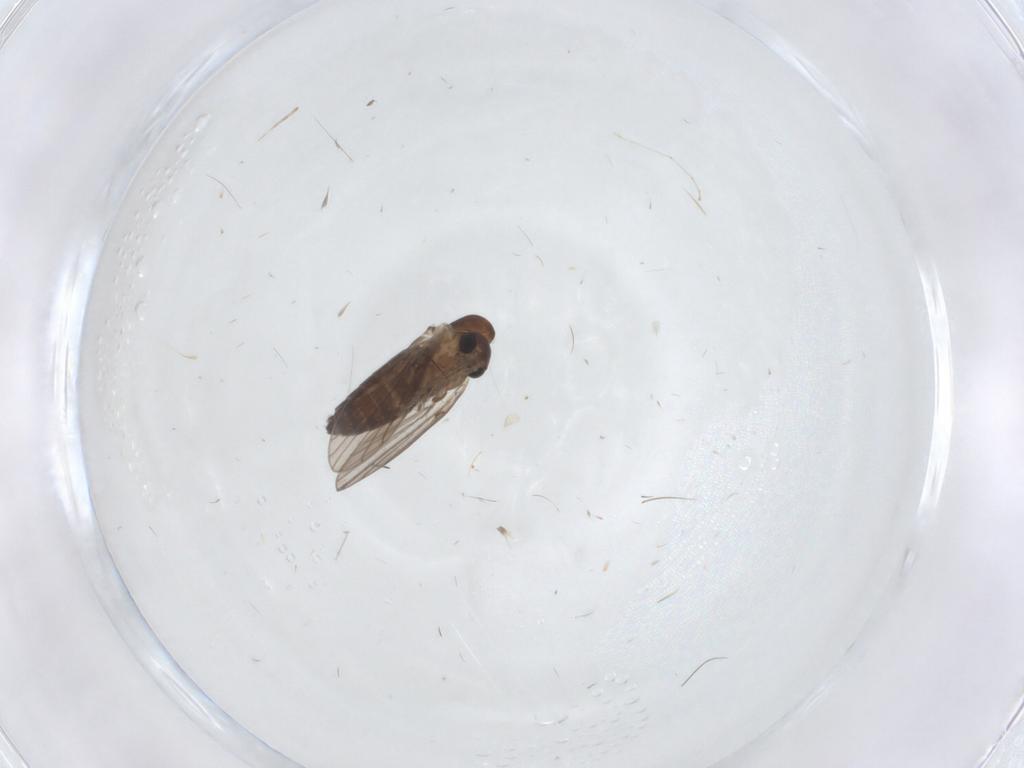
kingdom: Animalia
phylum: Arthropoda
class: Insecta
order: Diptera
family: Cecidomyiidae
